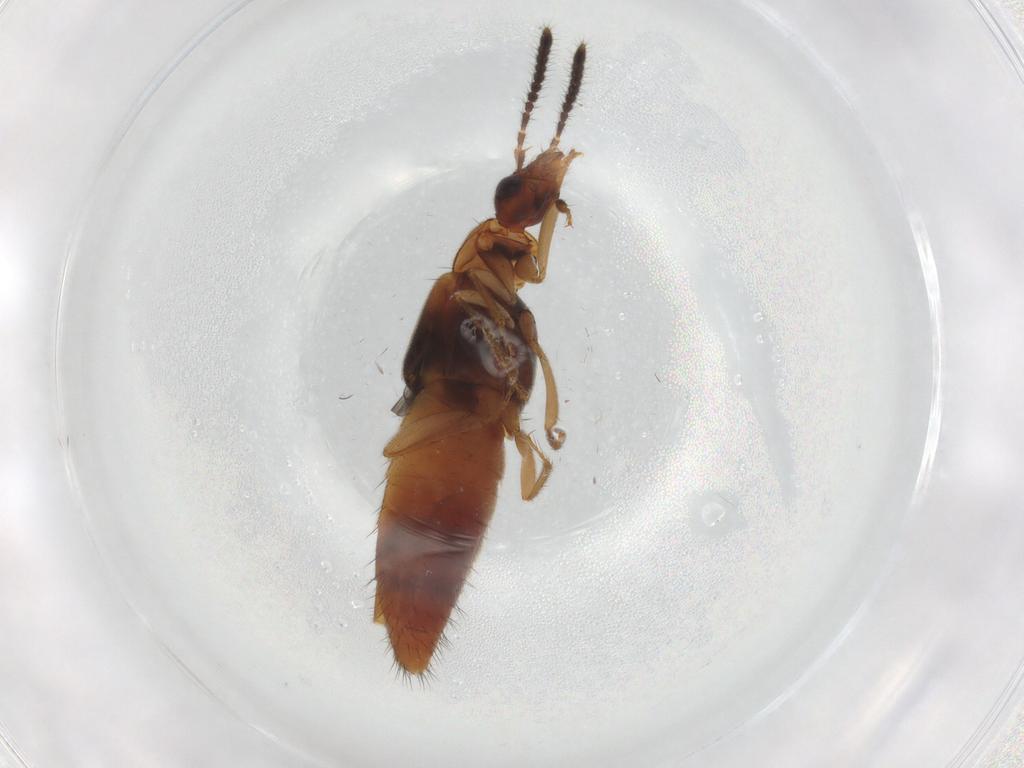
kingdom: Animalia
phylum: Arthropoda
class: Insecta
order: Coleoptera
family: Chrysomelidae
